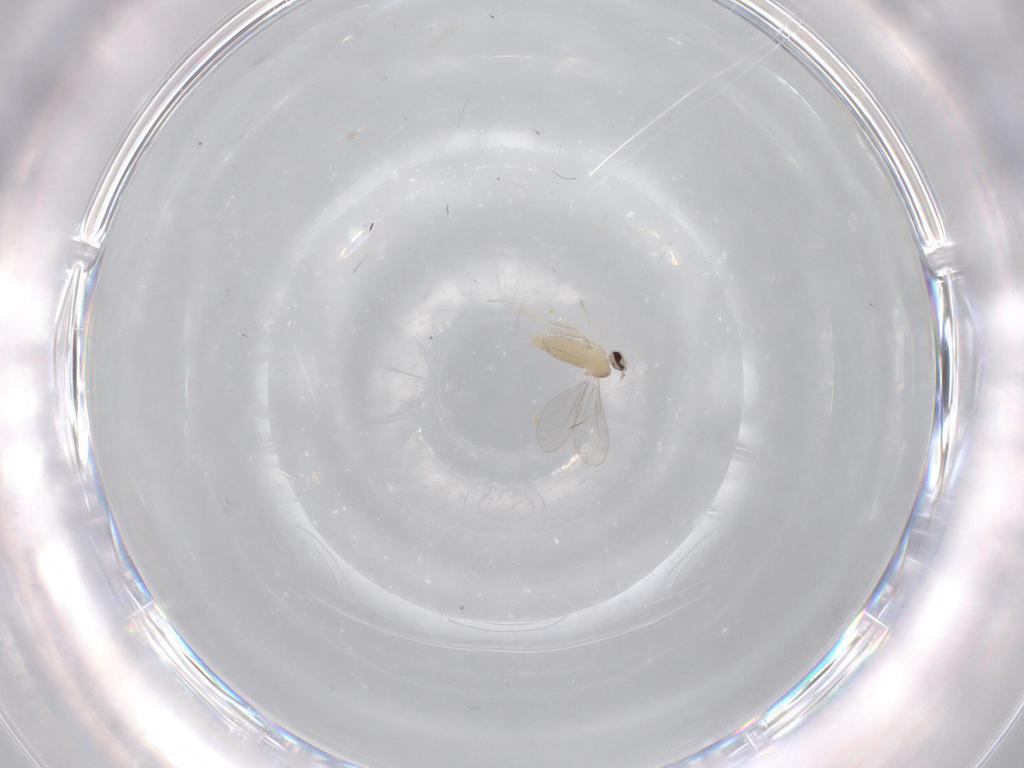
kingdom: Animalia
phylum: Arthropoda
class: Insecta
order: Diptera
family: Cecidomyiidae
